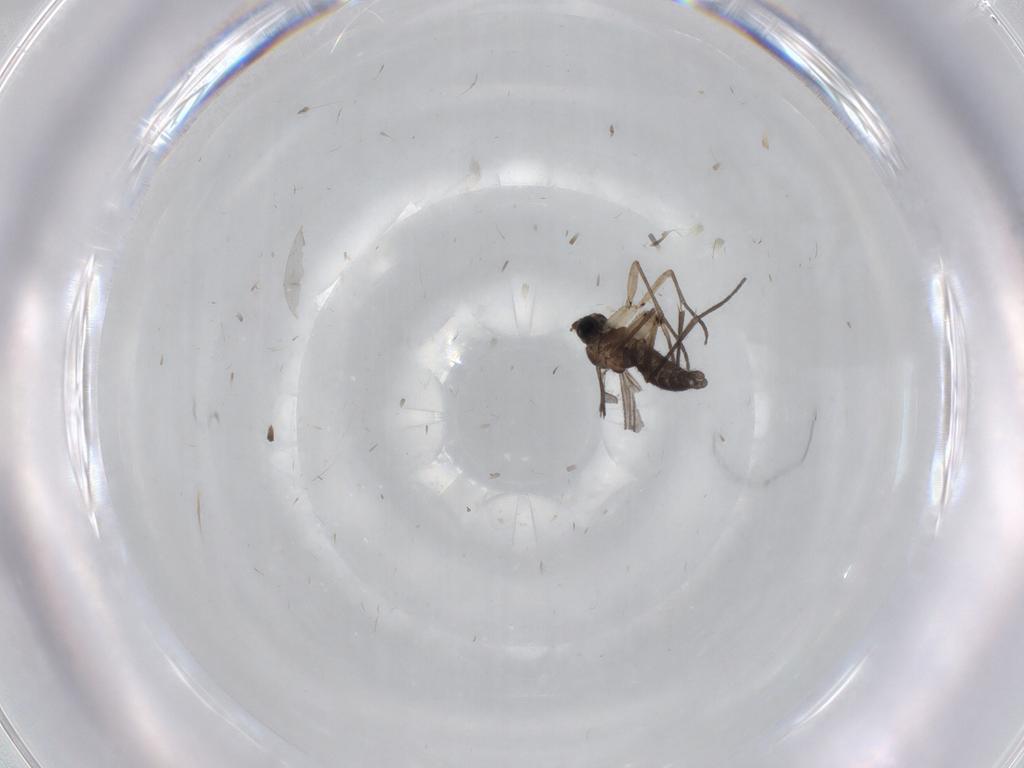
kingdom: Animalia
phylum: Arthropoda
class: Insecta
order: Diptera
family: Sciaridae
